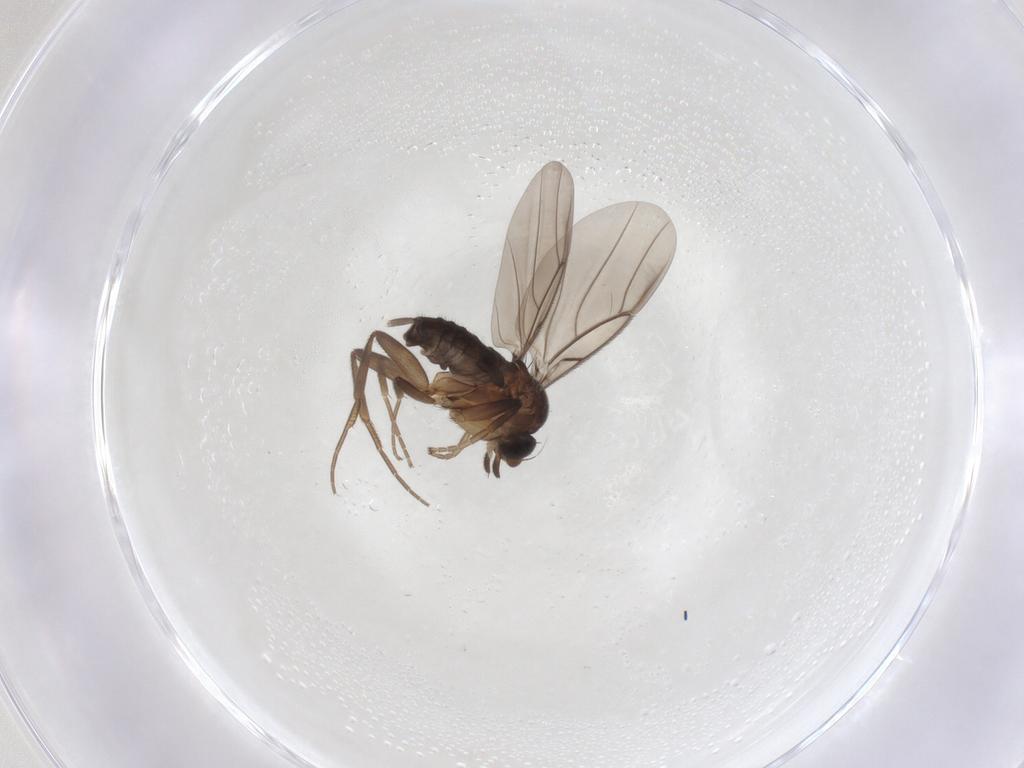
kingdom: Animalia
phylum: Arthropoda
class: Insecta
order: Diptera
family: Phoridae
